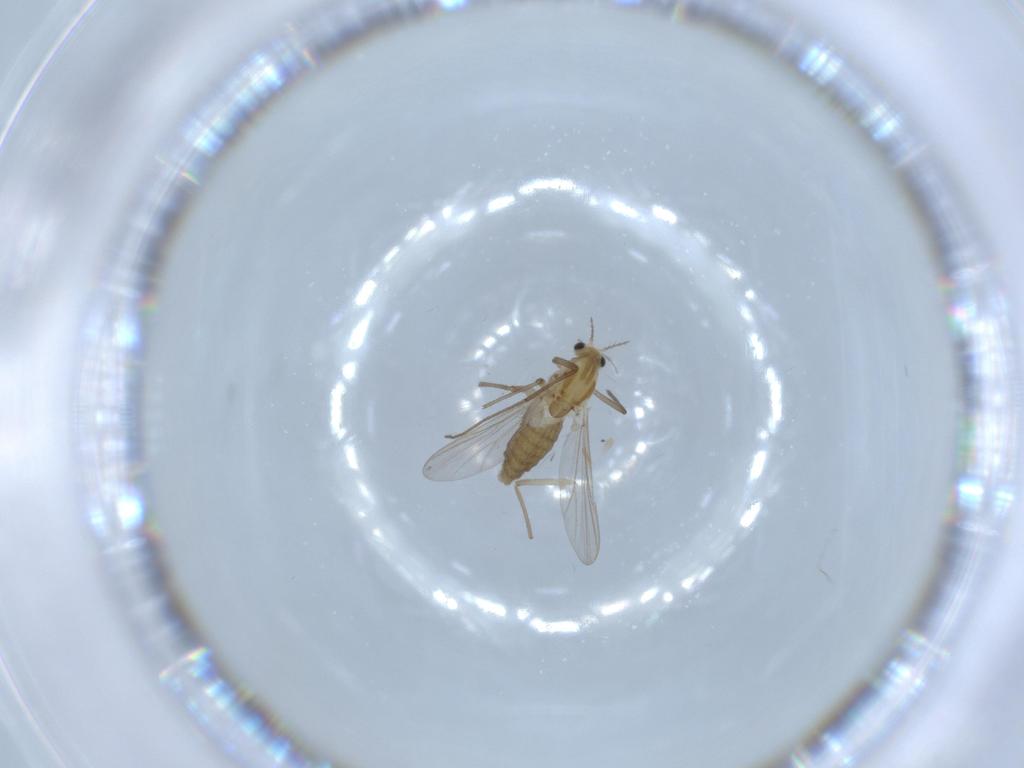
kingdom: Animalia
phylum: Arthropoda
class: Insecta
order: Diptera
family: Chironomidae
